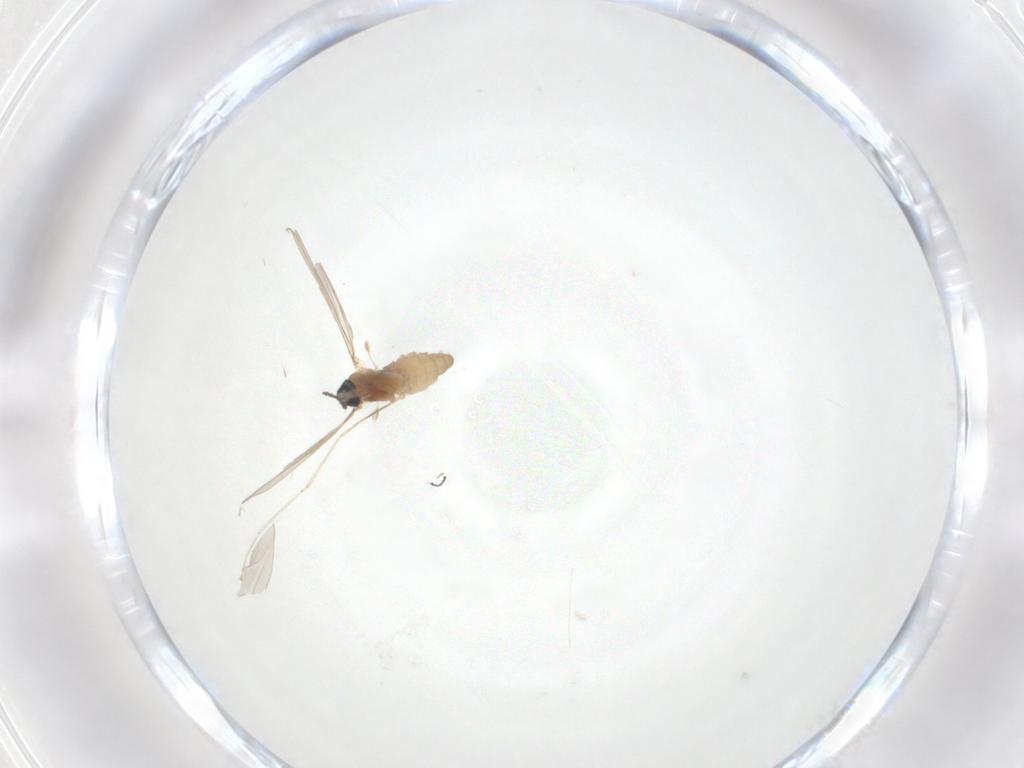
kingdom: Animalia
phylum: Arthropoda
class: Insecta
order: Diptera
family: Cecidomyiidae
